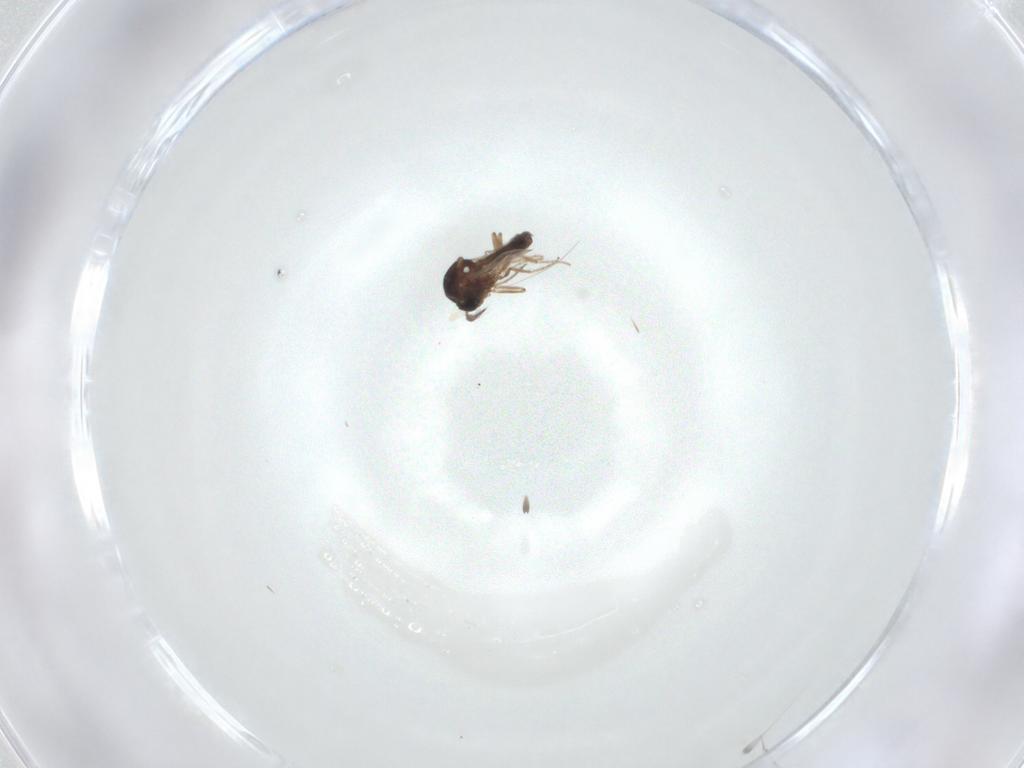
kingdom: Animalia
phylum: Arthropoda
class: Insecta
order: Diptera
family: Ceratopogonidae
